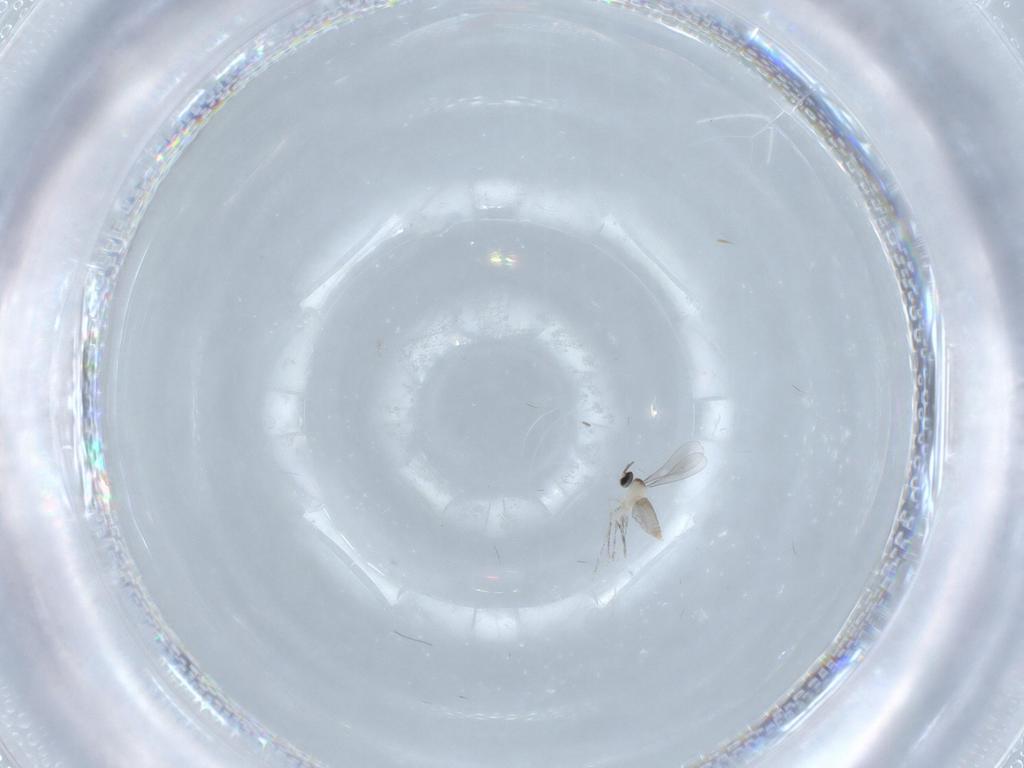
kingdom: Animalia
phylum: Arthropoda
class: Insecta
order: Diptera
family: Cecidomyiidae
